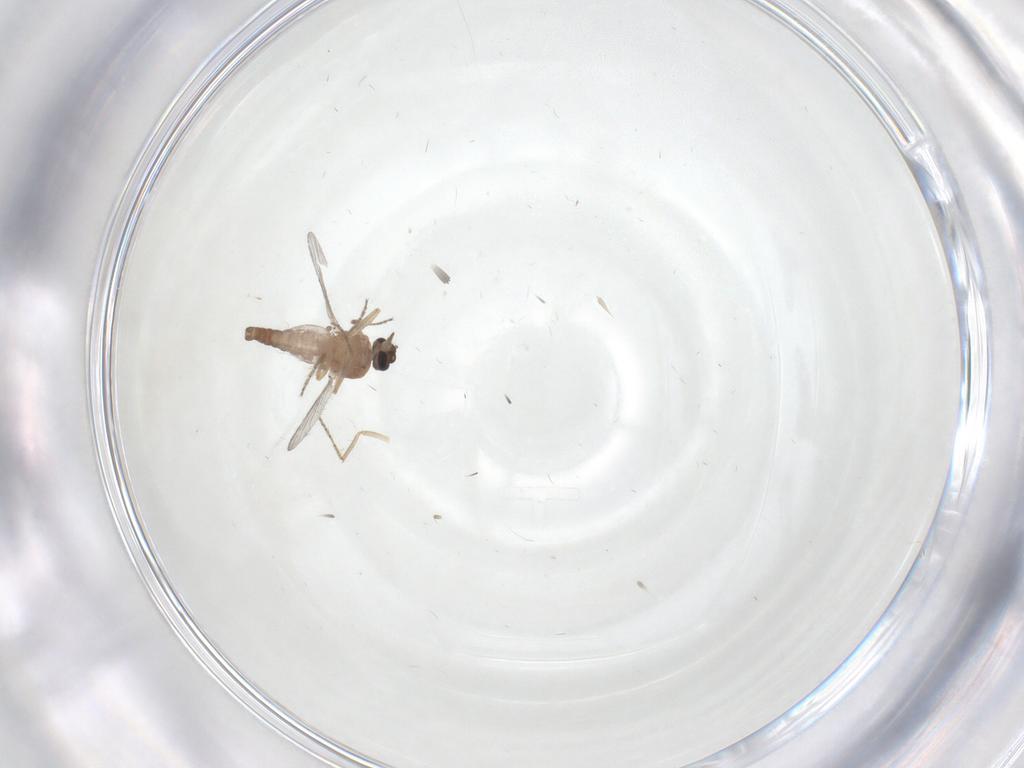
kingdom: Animalia
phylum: Arthropoda
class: Insecta
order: Diptera
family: Ceratopogonidae
